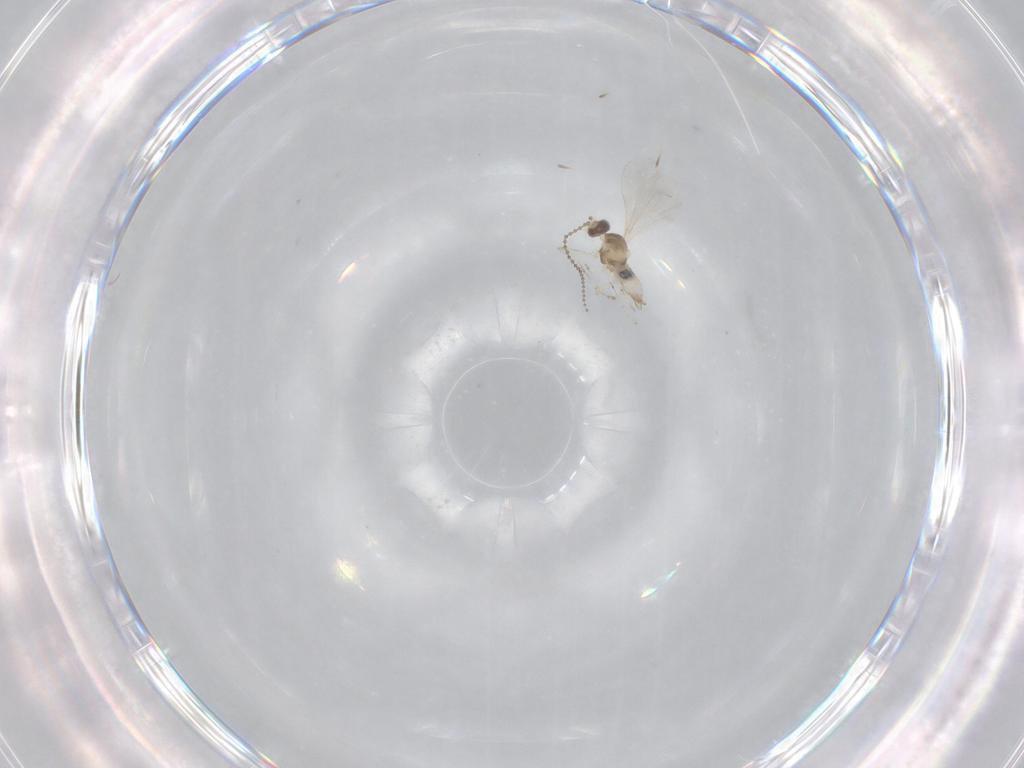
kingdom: Animalia
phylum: Arthropoda
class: Insecta
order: Diptera
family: Cecidomyiidae
